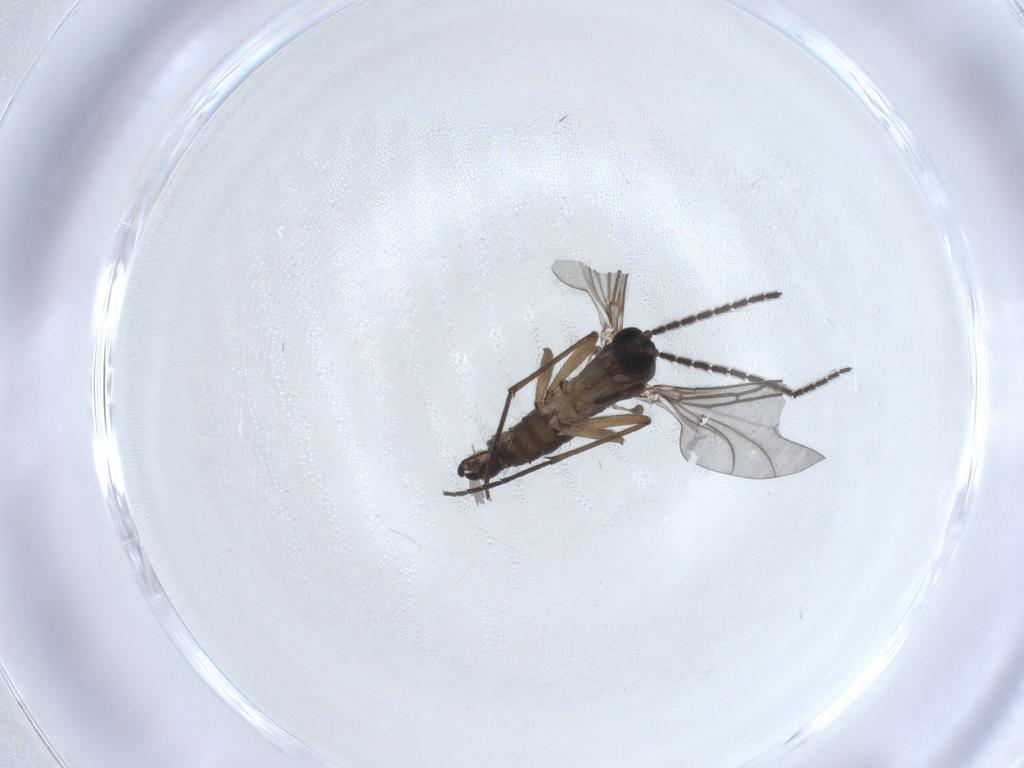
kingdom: Animalia
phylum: Arthropoda
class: Insecta
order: Diptera
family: Sciaridae
